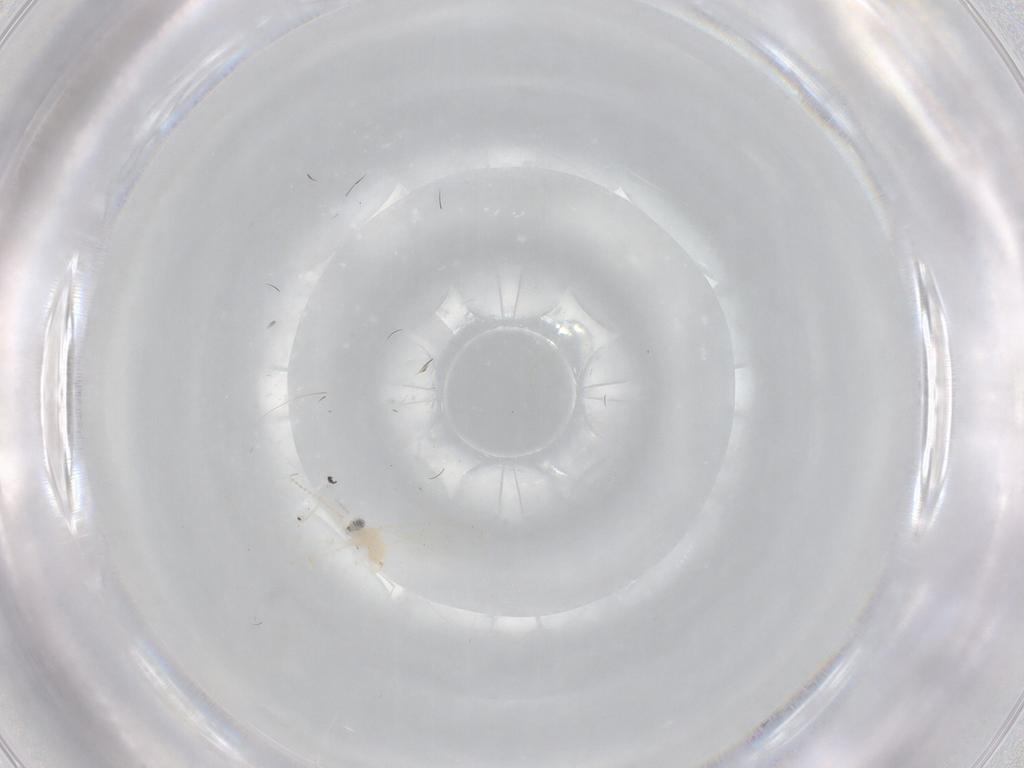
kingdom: Animalia
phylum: Arthropoda
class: Insecta
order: Diptera
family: Cecidomyiidae
